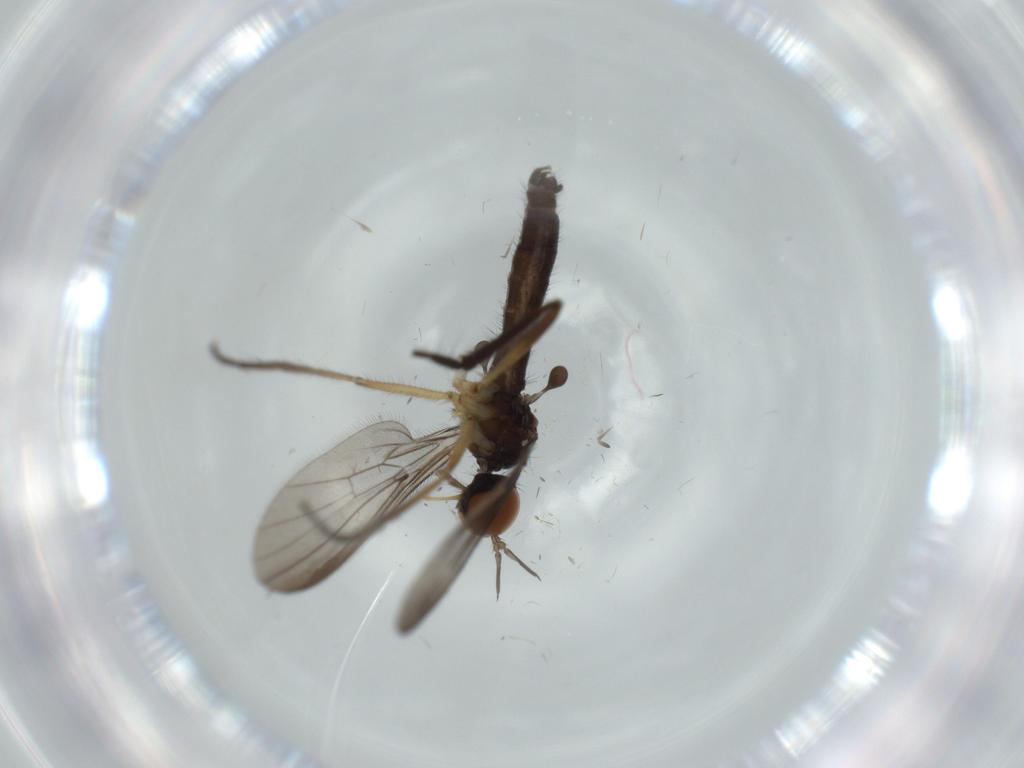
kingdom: Animalia
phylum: Arthropoda
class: Insecta
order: Diptera
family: Empididae
